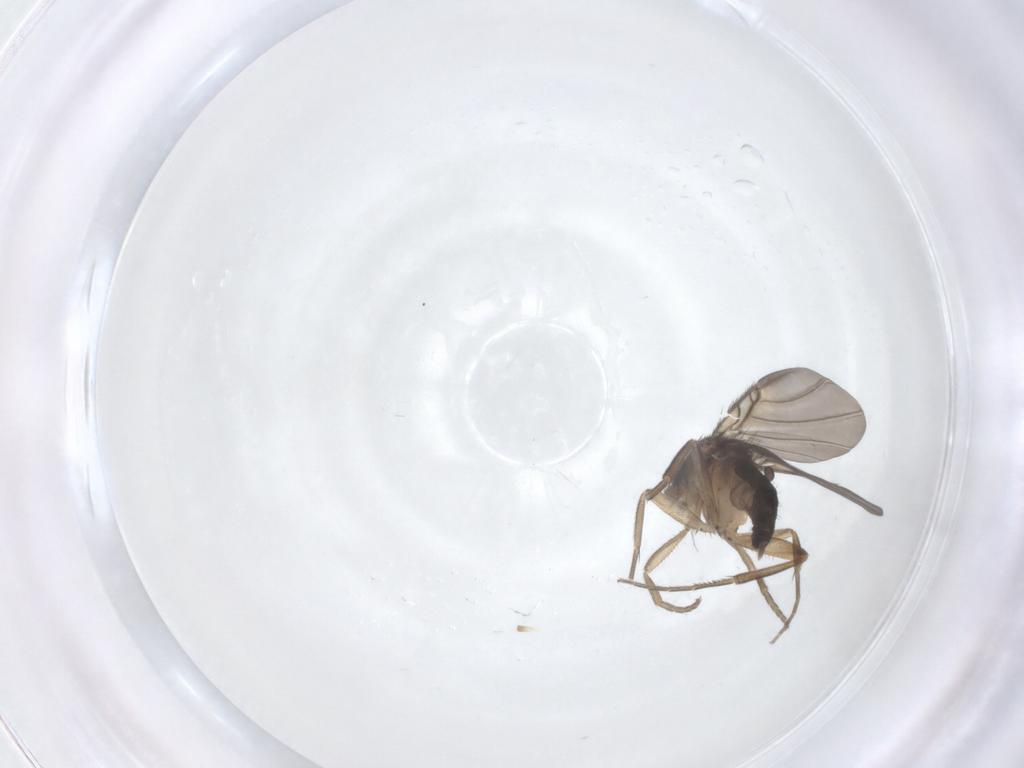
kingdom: Animalia
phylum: Arthropoda
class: Insecta
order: Diptera
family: Phoridae
